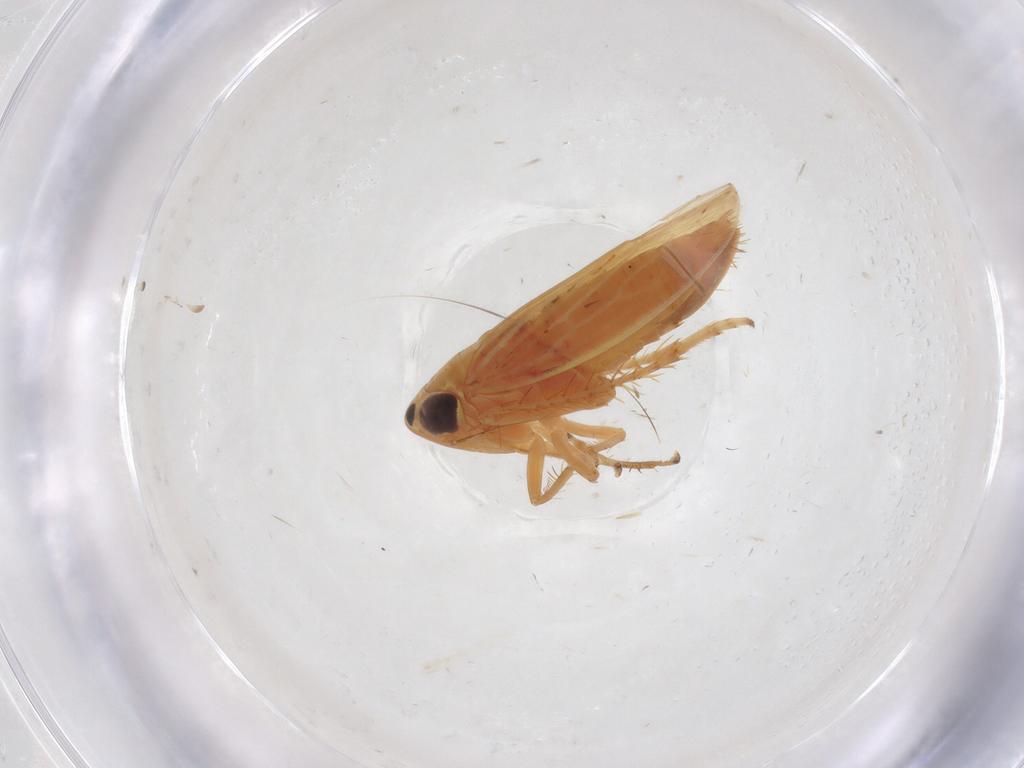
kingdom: Animalia
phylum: Arthropoda
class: Insecta
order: Hemiptera
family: Cicadellidae
